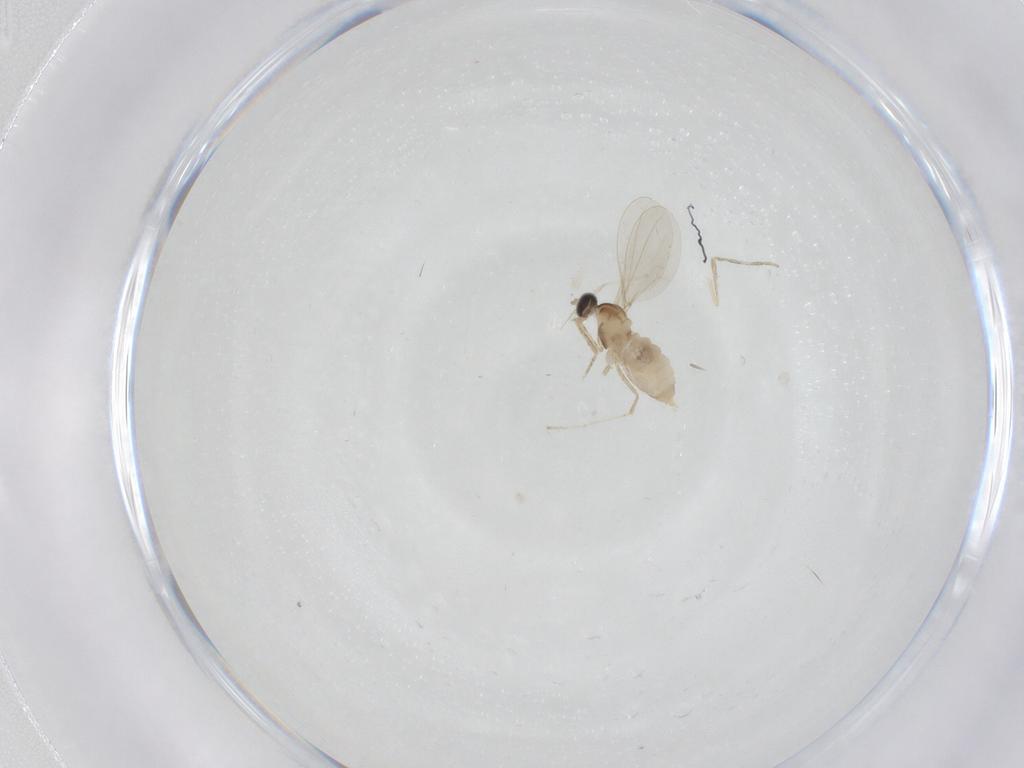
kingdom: Animalia
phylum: Arthropoda
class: Insecta
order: Diptera
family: Cecidomyiidae
